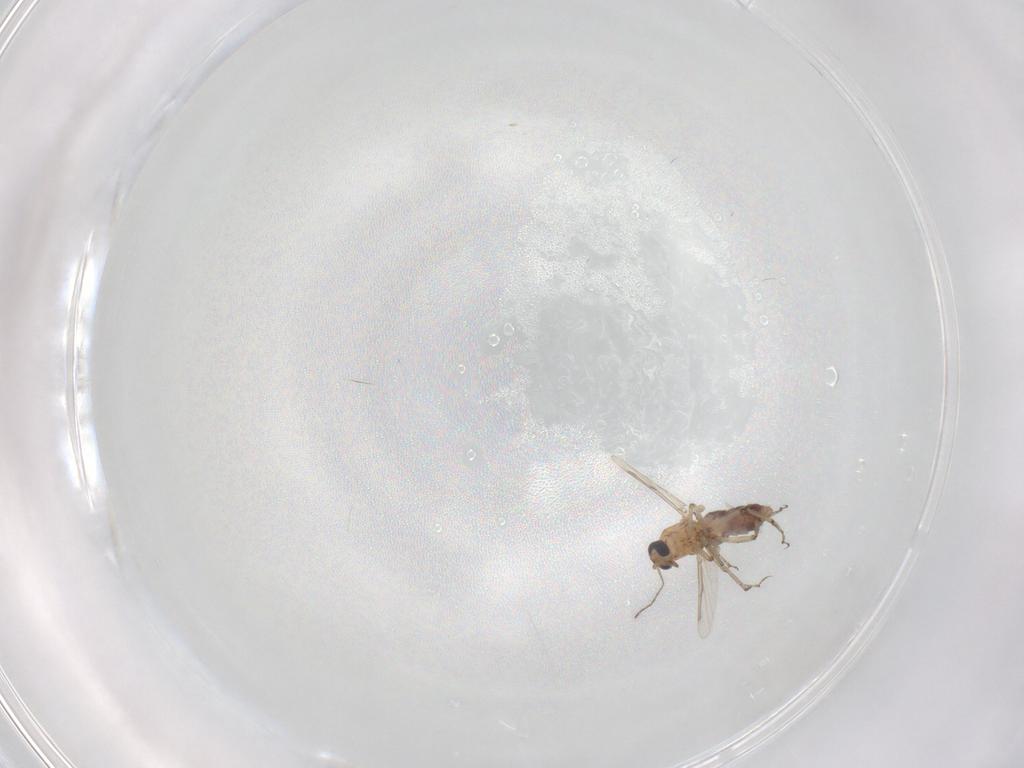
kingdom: Animalia
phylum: Arthropoda
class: Insecta
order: Diptera
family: Ceratopogonidae
